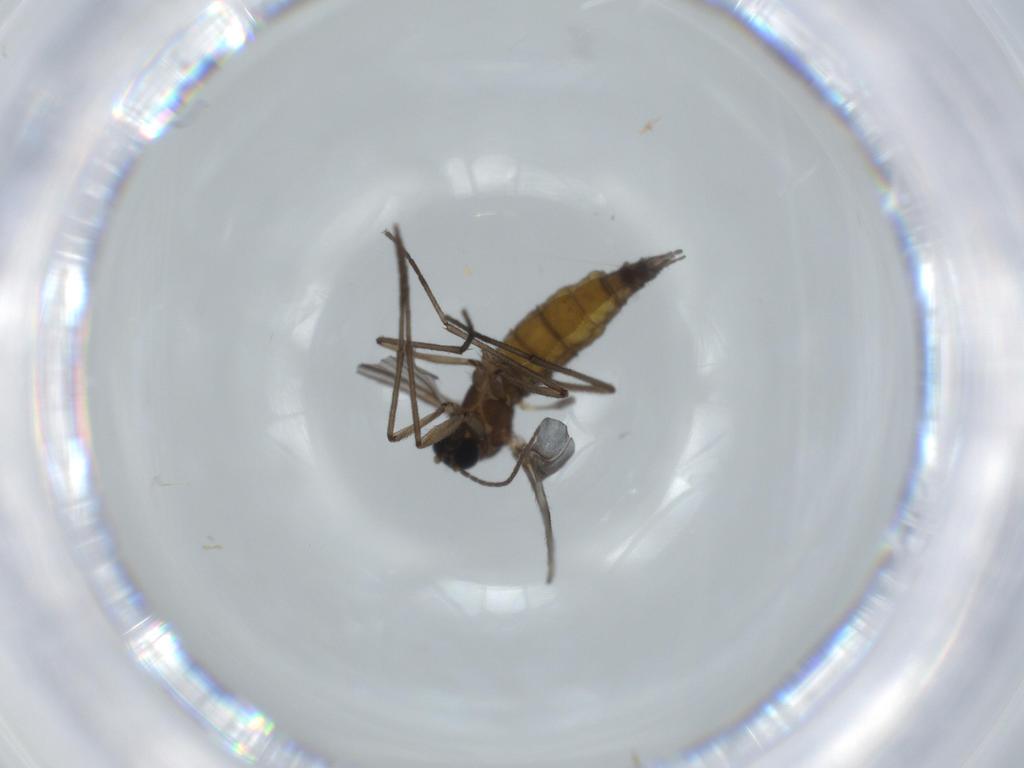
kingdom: Animalia
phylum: Arthropoda
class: Insecta
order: Diptera
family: Sciaridae
